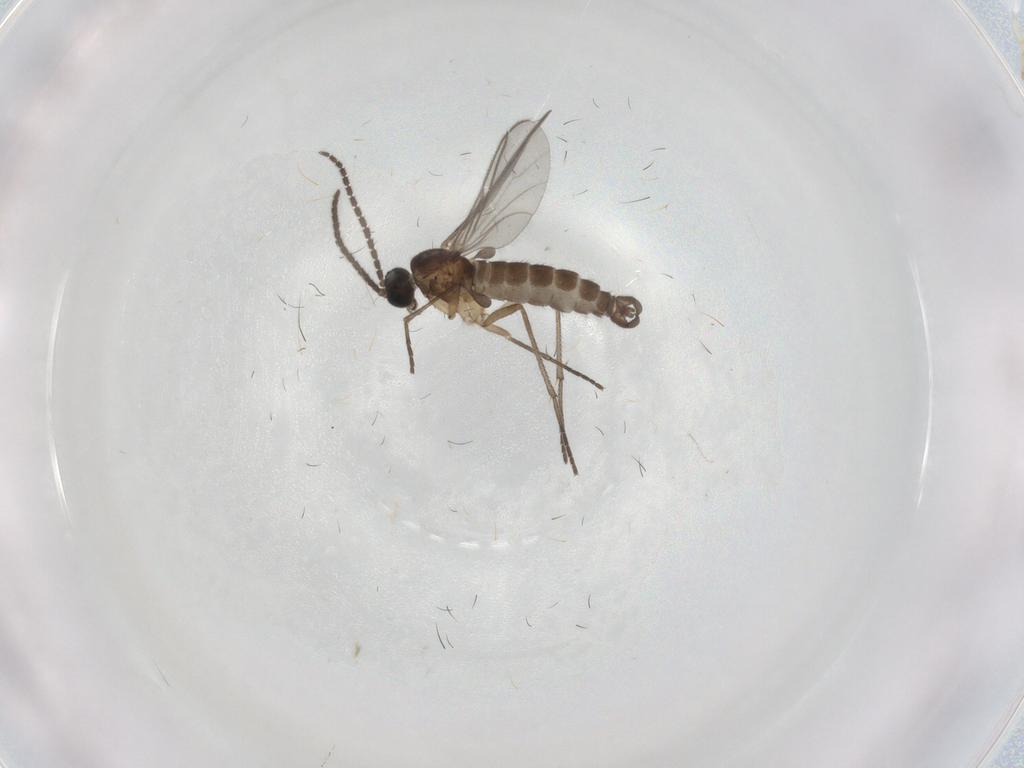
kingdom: Animalia
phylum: Arthropoda
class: Insecta
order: Diptera
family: Sciaridae
